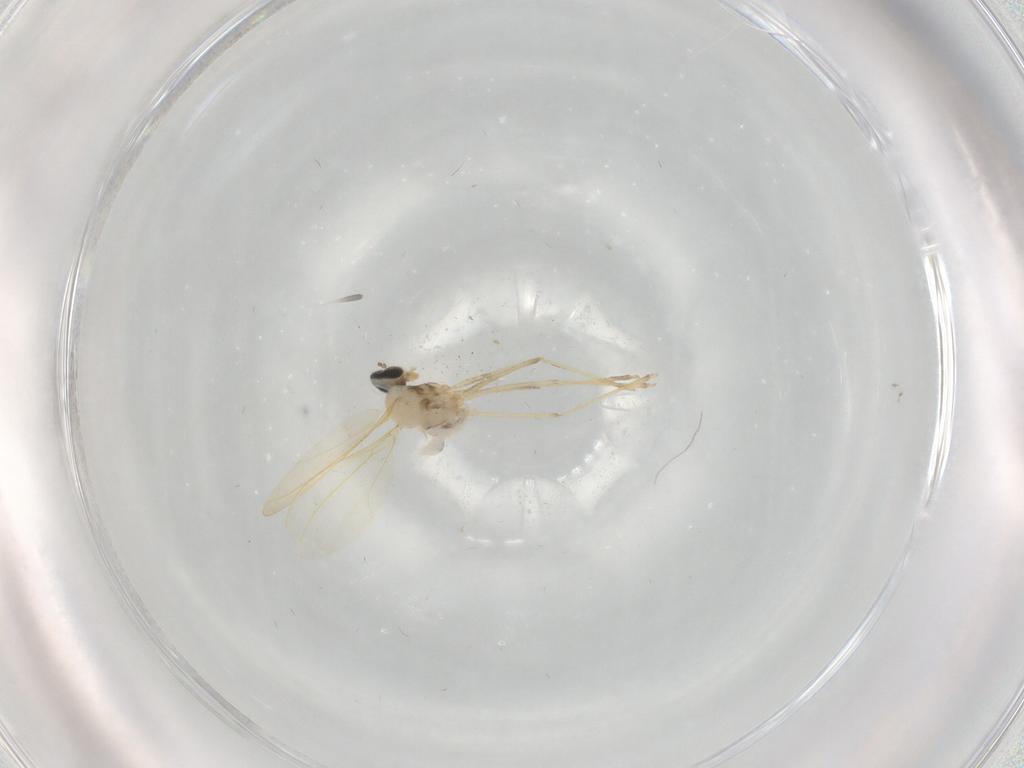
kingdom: Animalia
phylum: Arthropoda
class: Insecta
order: Diptera
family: Cecidomyiidae
